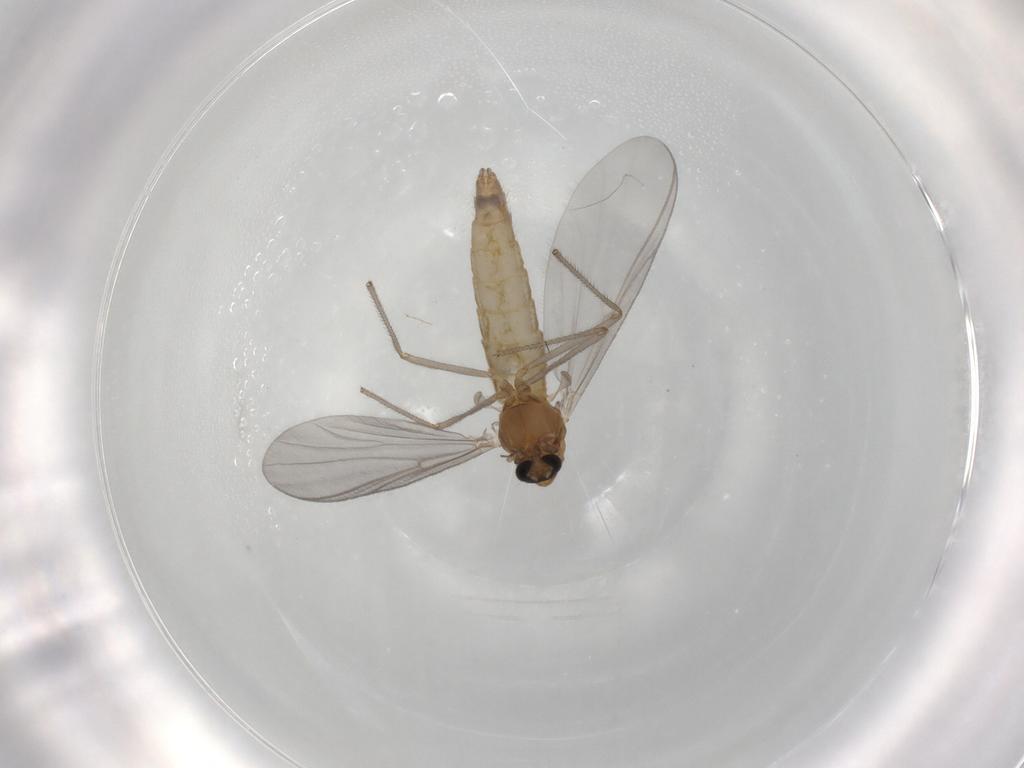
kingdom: Animalia
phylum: Arthropoda
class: Insecta
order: Diptera
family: Chironomidae
